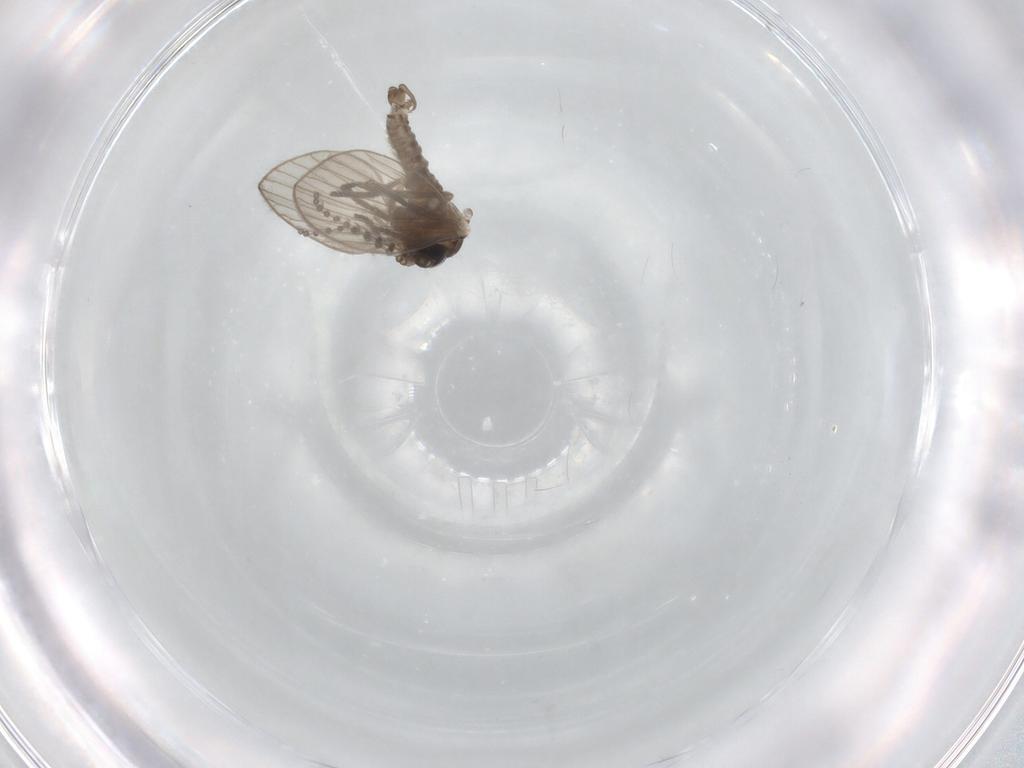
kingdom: Animalia
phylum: Arthropoda
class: Insecta
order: Diptera
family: Psychodidae
